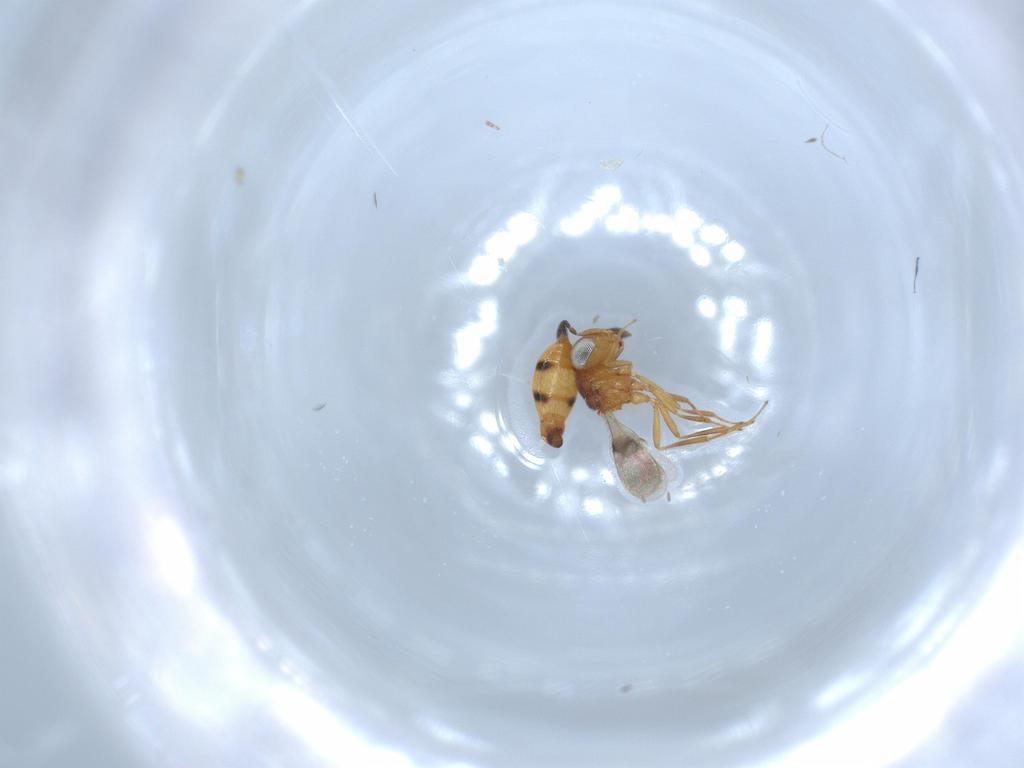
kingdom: Animalia
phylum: Arthropoda
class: Insecta
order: Hymenoptera
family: Scelionidae
